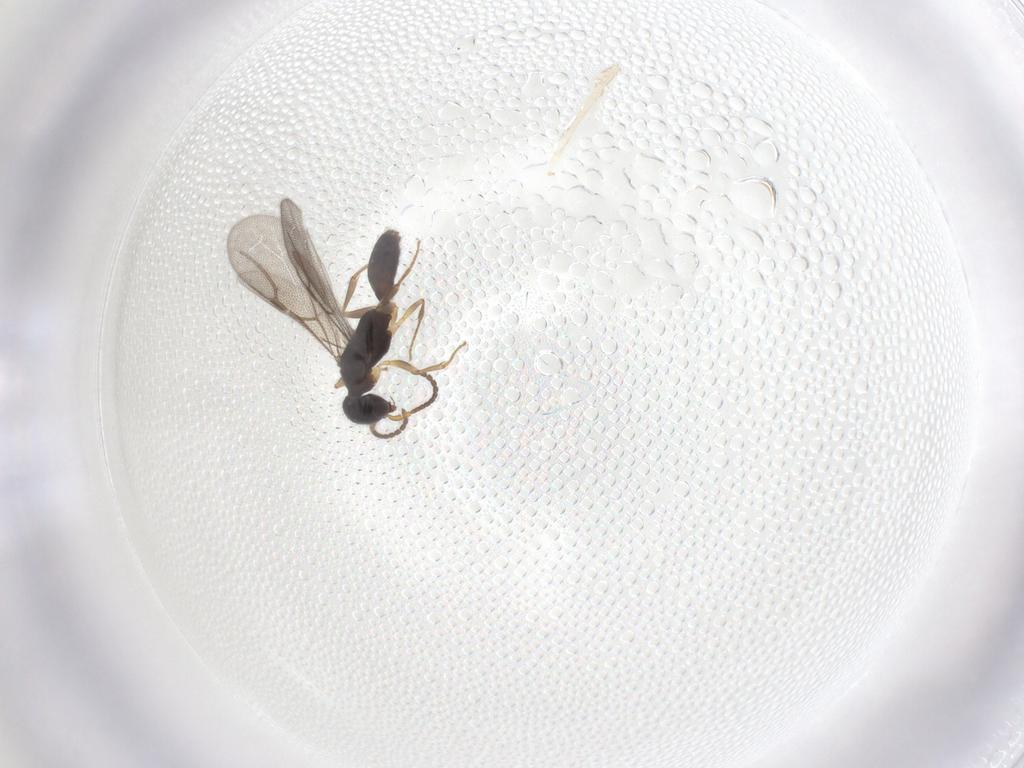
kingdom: Animalia
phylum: Arthropoda
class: Insecta
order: Hymenoptera
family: Bethylidae
